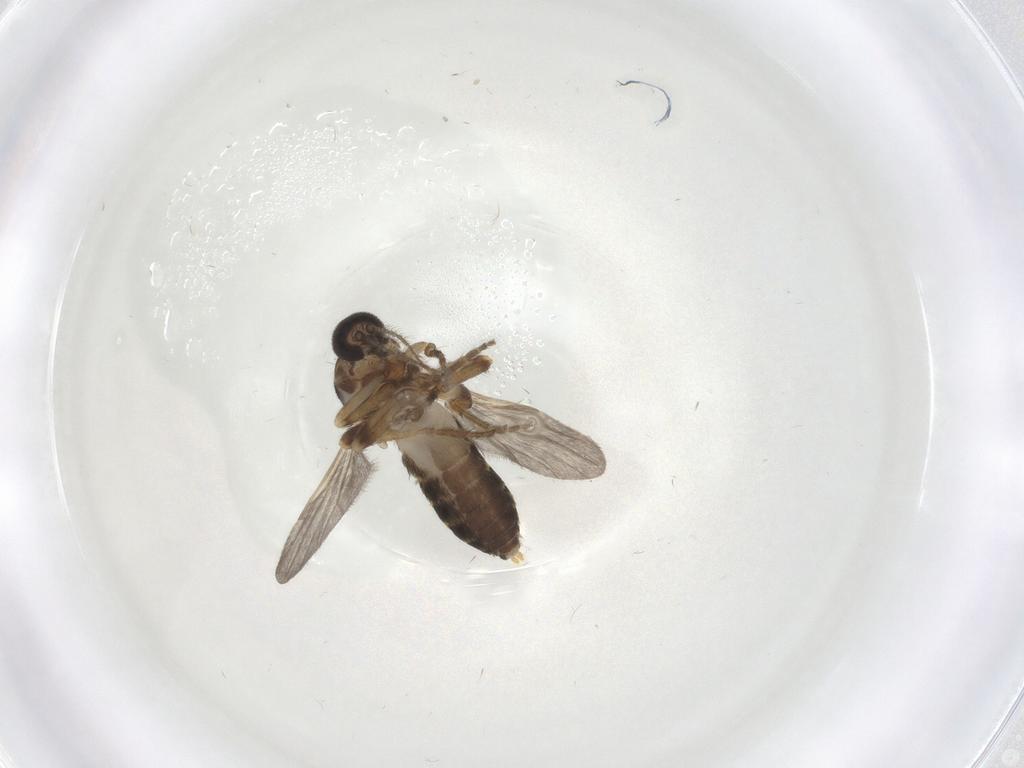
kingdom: Animalia
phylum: Arthropoda
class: Insecta
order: Diptera
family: Ceratopogonidae
